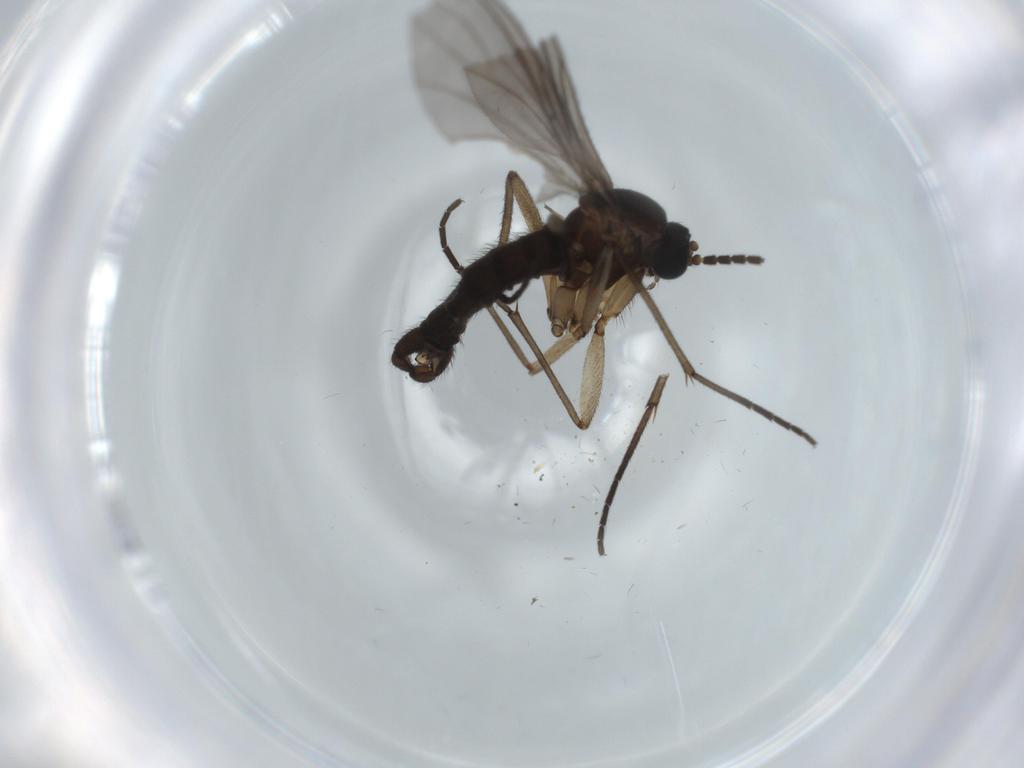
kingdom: Animalia
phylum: Arthropoda
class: Insecta
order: Diptera
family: Sciaridae
